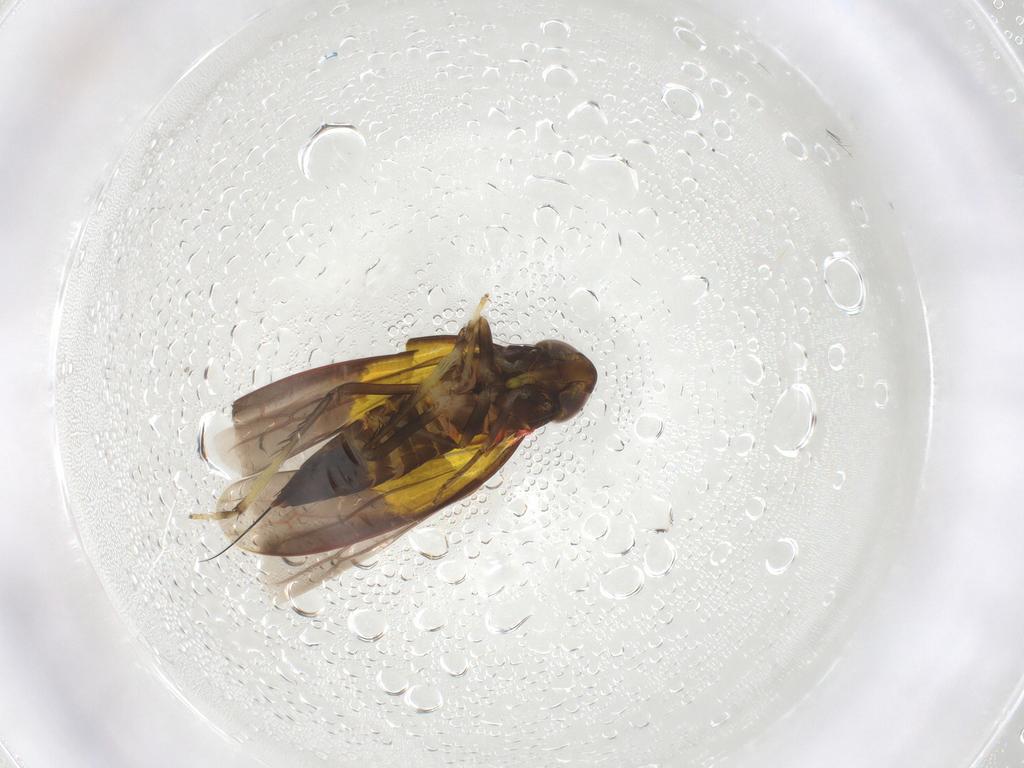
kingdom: Animalia
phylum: Arthropoda
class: Insecta
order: Hemiptera
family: Cicadellidae
